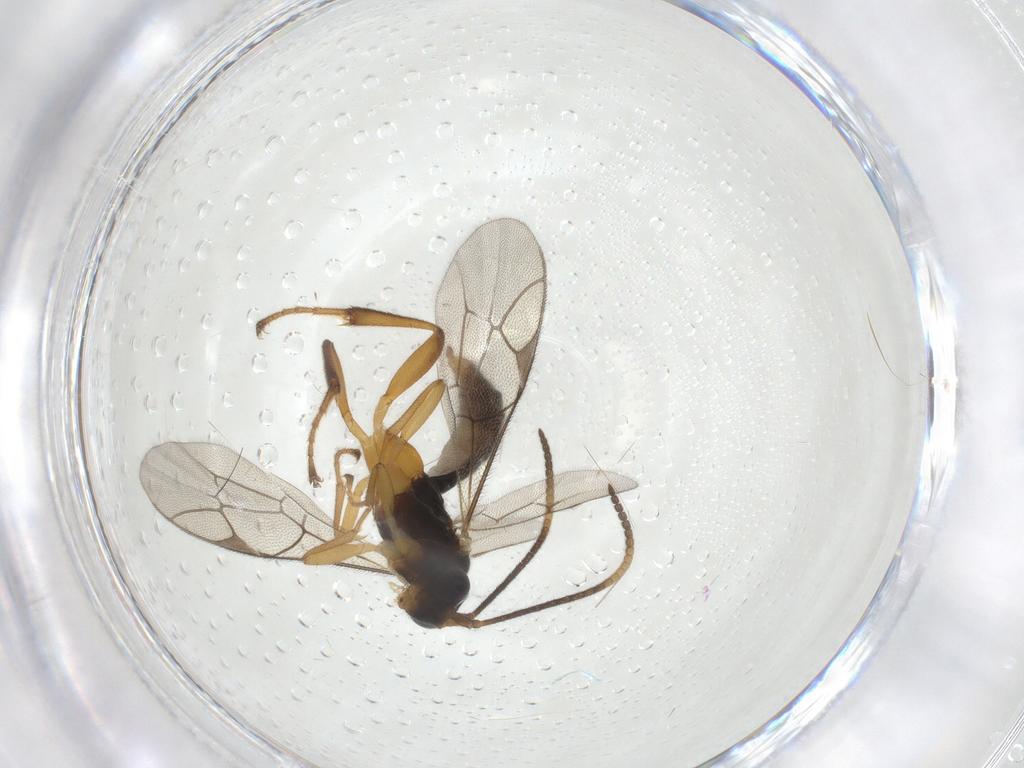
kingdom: Animalia
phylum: Arthropoda
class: Insecta
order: Hymenoptera
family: Ichneumonidae
